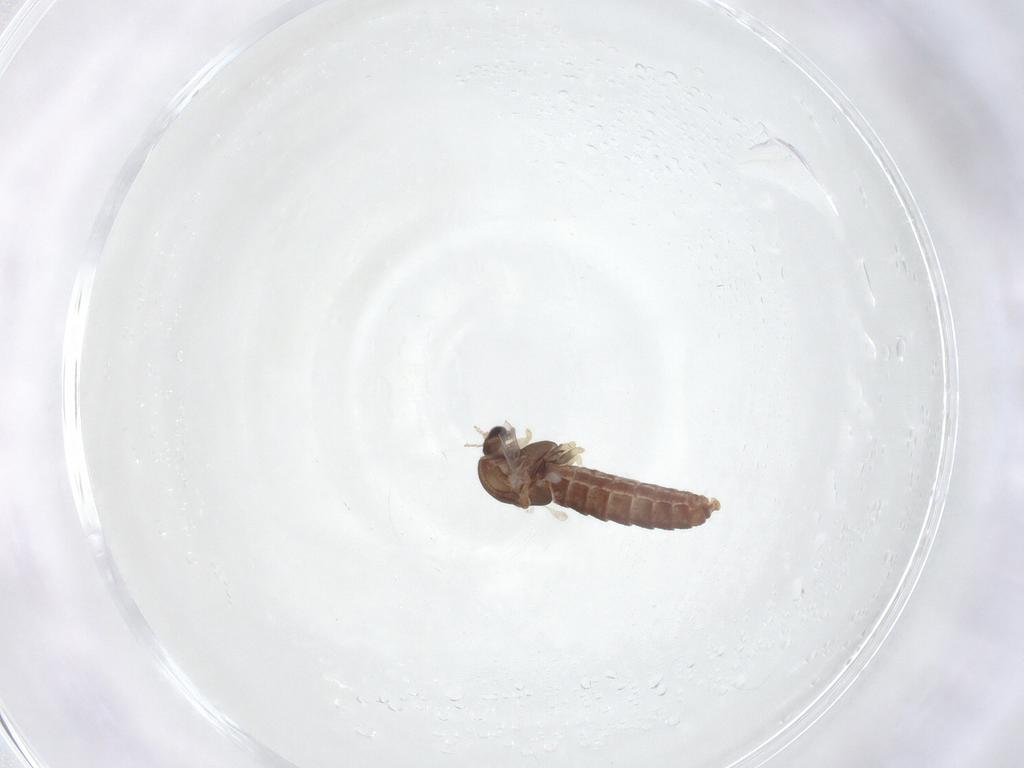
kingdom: Animalia
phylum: Arthropoda
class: Insecta
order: Diptera
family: Chironomidae
